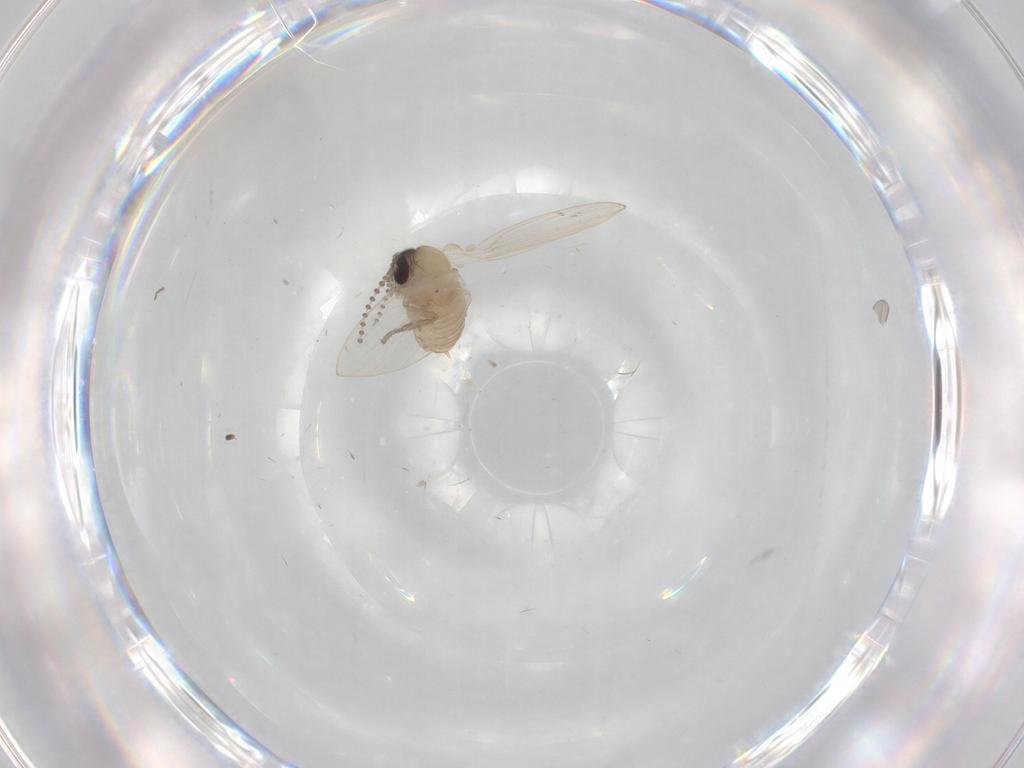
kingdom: Animalia
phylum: Arthropoda
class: Insecta
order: Diptera
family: Psychodidae
